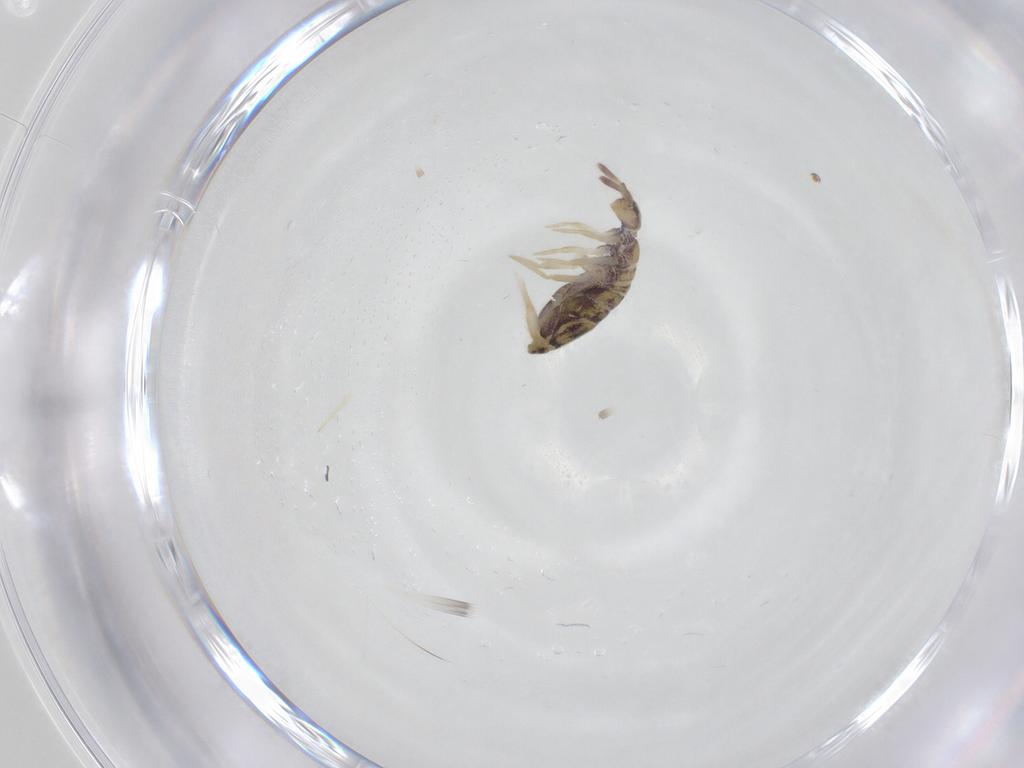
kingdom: Animalia
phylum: Arthropoda
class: Collembola
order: Entomobryomorpha
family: Entomobryidae
